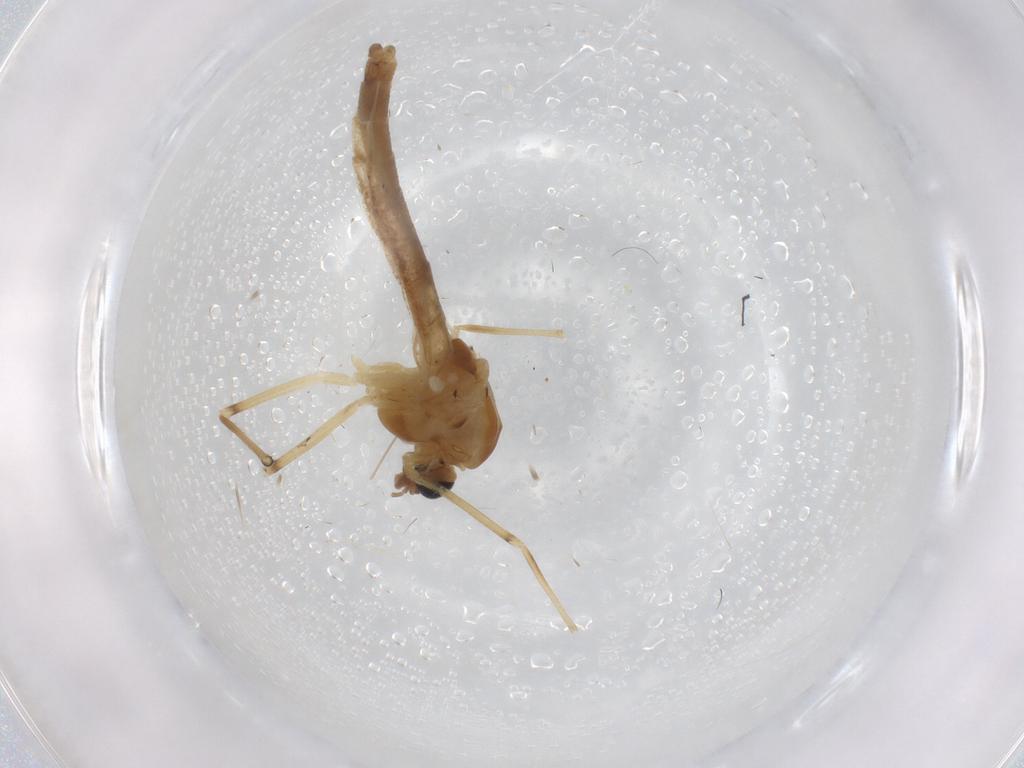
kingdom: Animalia
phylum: Arthropoda
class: Insecta
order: Diptera
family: Chironomidae
